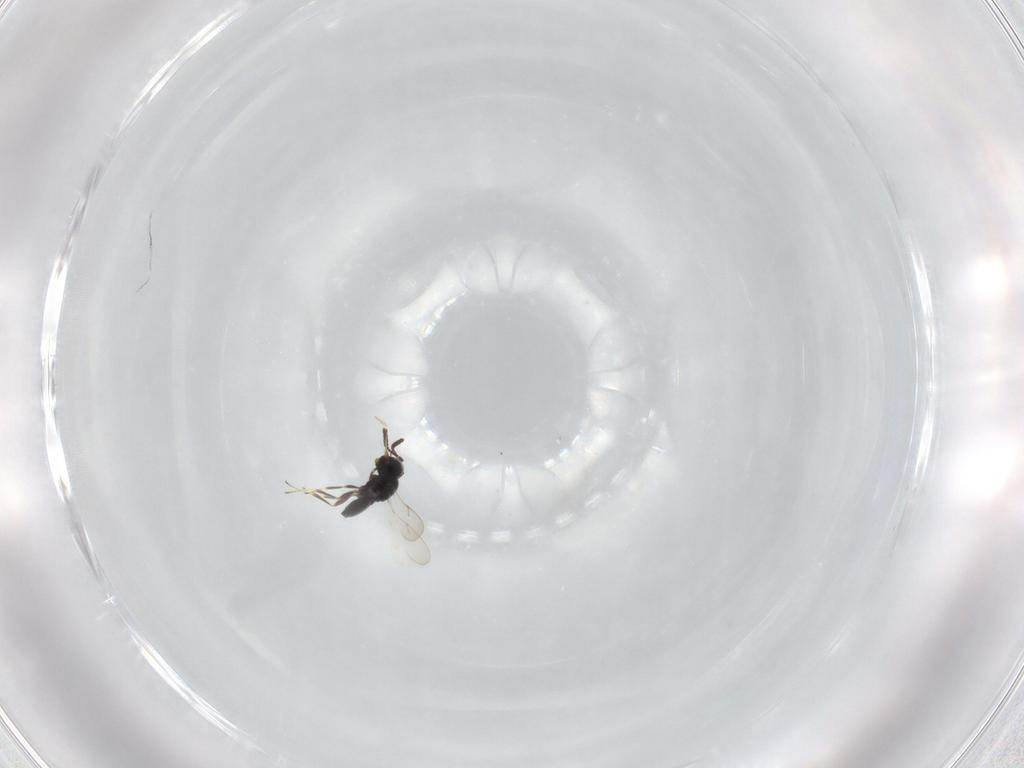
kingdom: Animalia
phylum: Arthropoda
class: Insecta
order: Hymenoptera
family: Scelionidae
